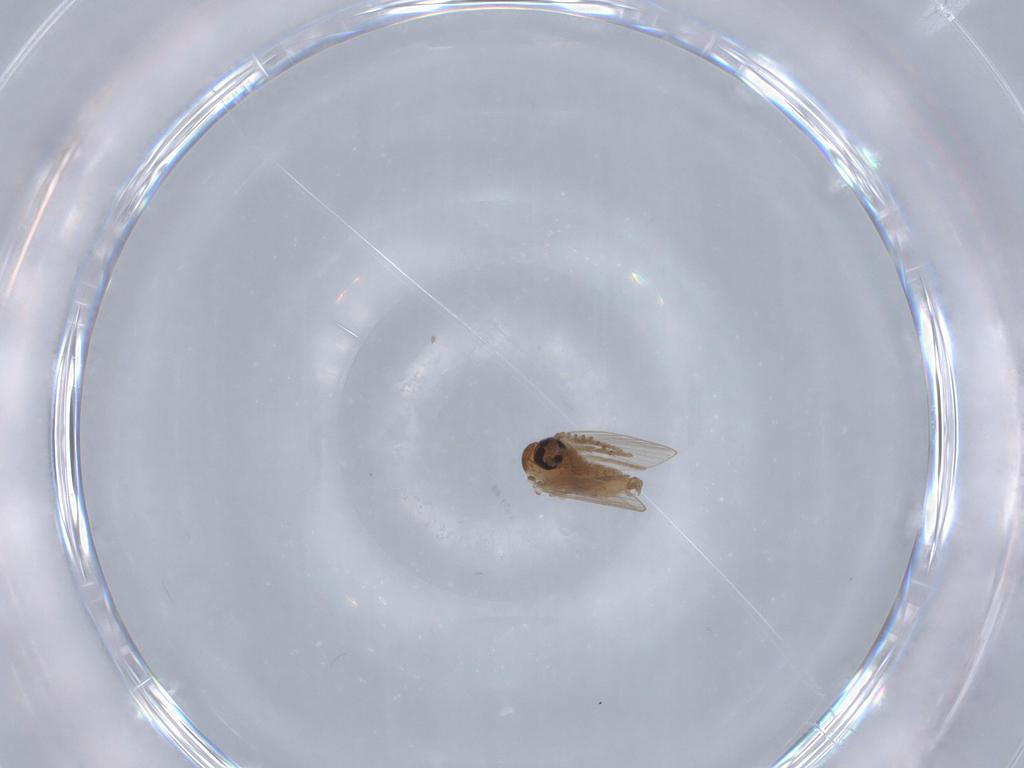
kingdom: Animalia
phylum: Arthropoda
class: Insecta
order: Diptera
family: Psychodidae
